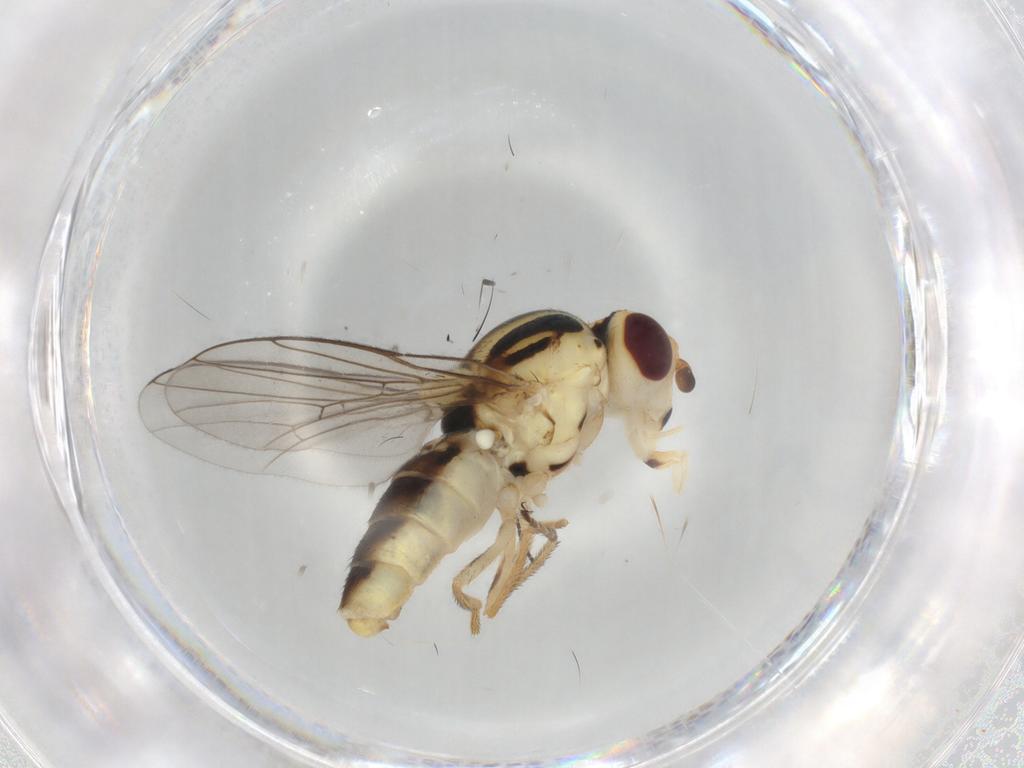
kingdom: Animalia
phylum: Arthropoda
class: Insecta
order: Diptera
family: Chloropidae
